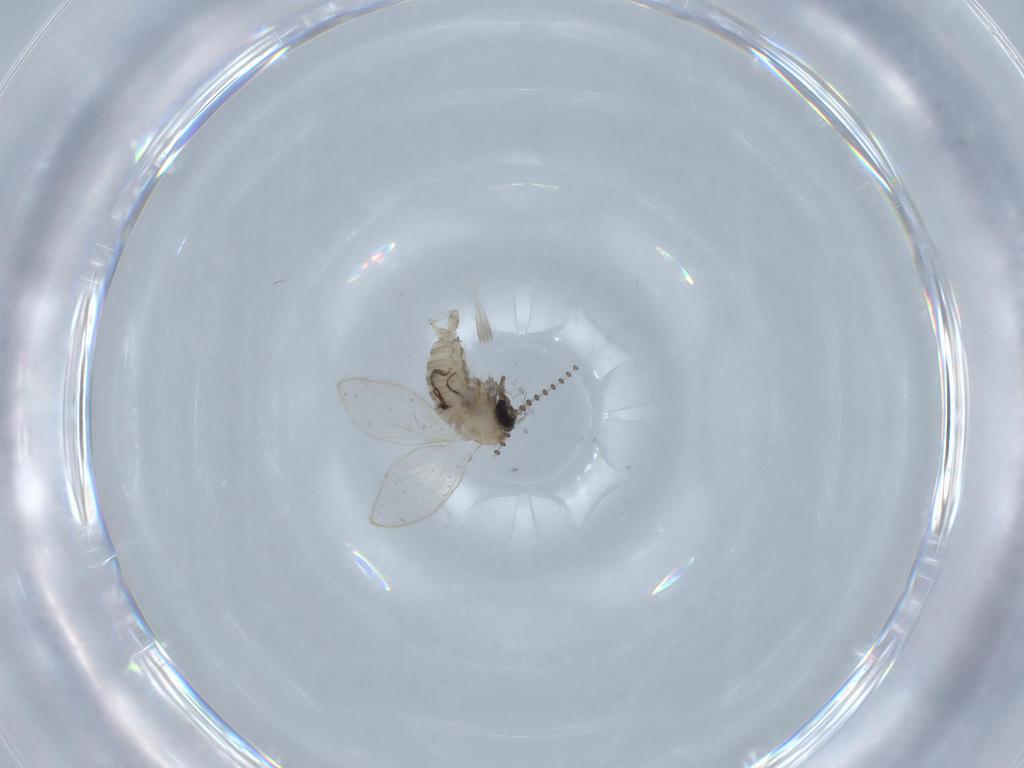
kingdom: Animalia
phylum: Arthropoda
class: Insecta
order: Diptera
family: Psychodidae
